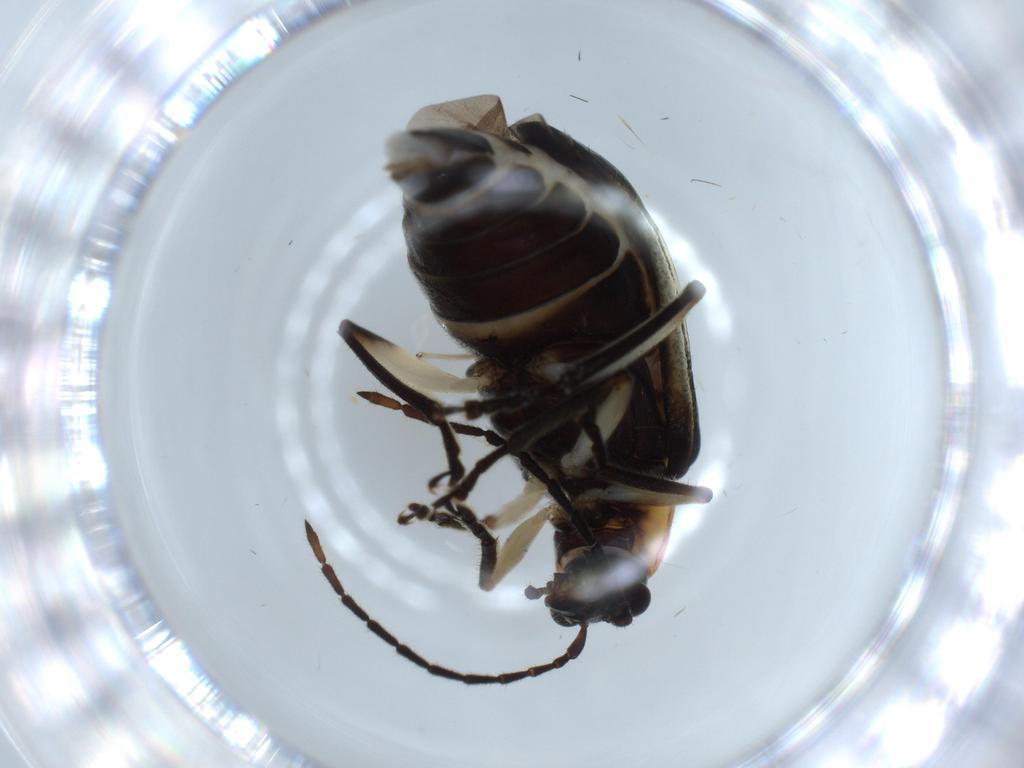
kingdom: Animalia
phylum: Arthropoda
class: Insecta
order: Coleoptera
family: Staphylinidae
